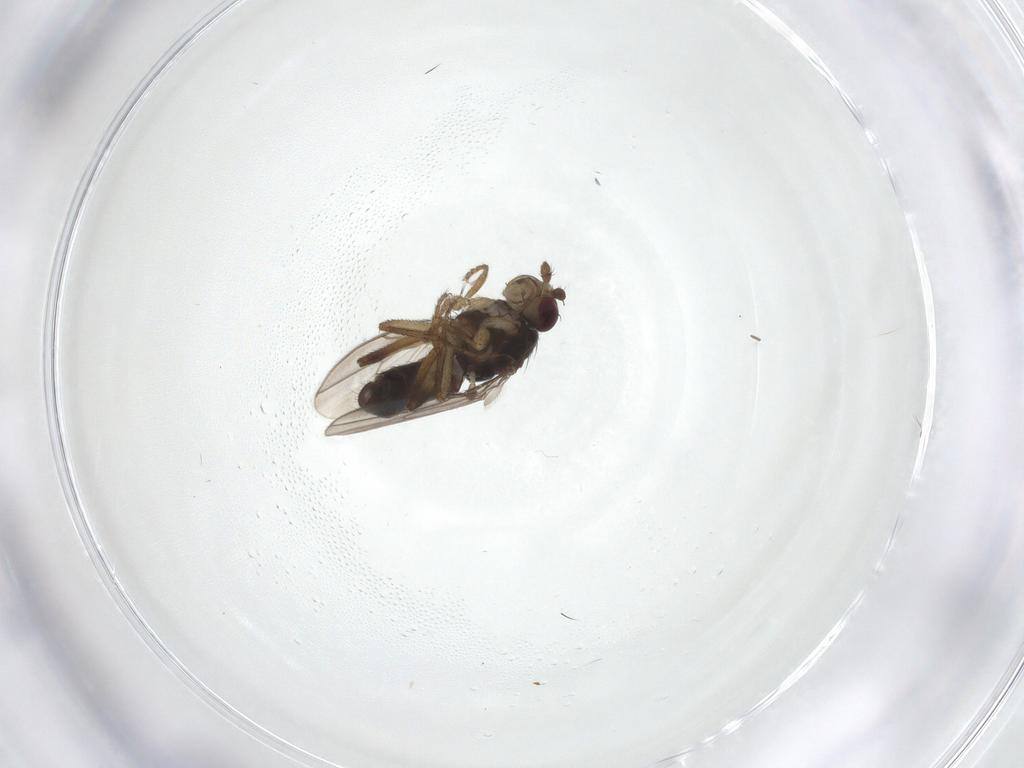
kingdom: Animalia
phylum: Arthropoda
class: Insecta
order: Diptera
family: Sphaeroceridae
